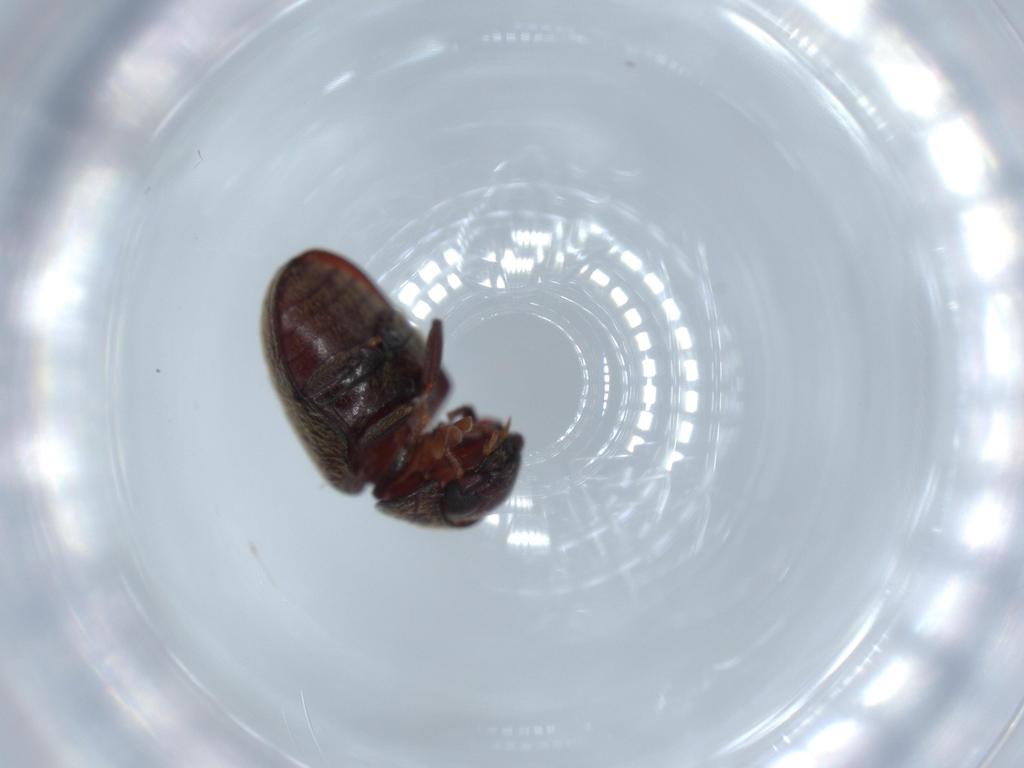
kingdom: Animalia
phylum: Arthropoda
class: Insecta
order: Coleoptera
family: Ptinidae
